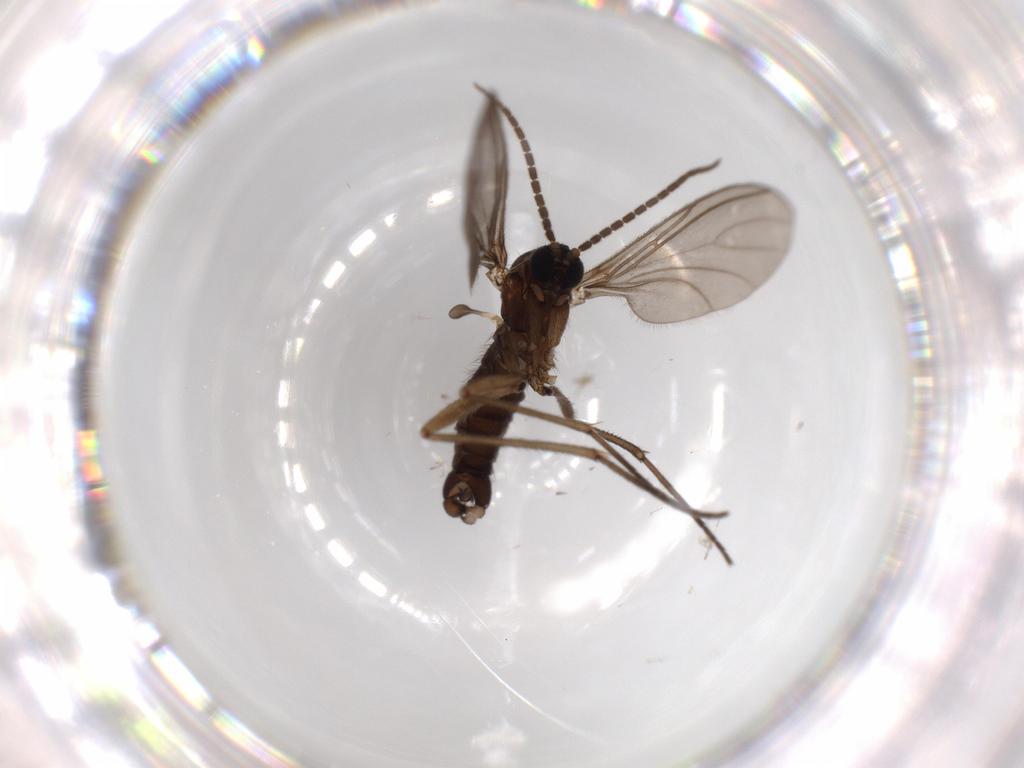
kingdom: Animalia
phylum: Arthropoda
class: Insecta
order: Diptera
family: Sciaridae
